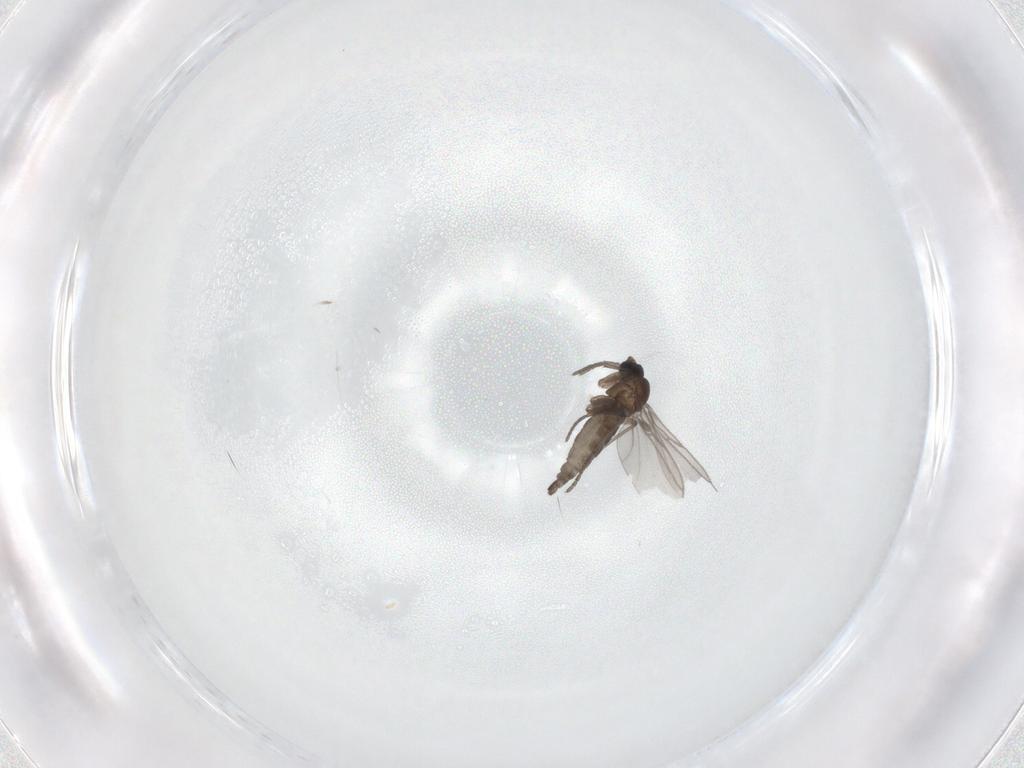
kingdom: Animalia
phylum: Arthropoda
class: Insecta
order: Diptera
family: Sciaridae
